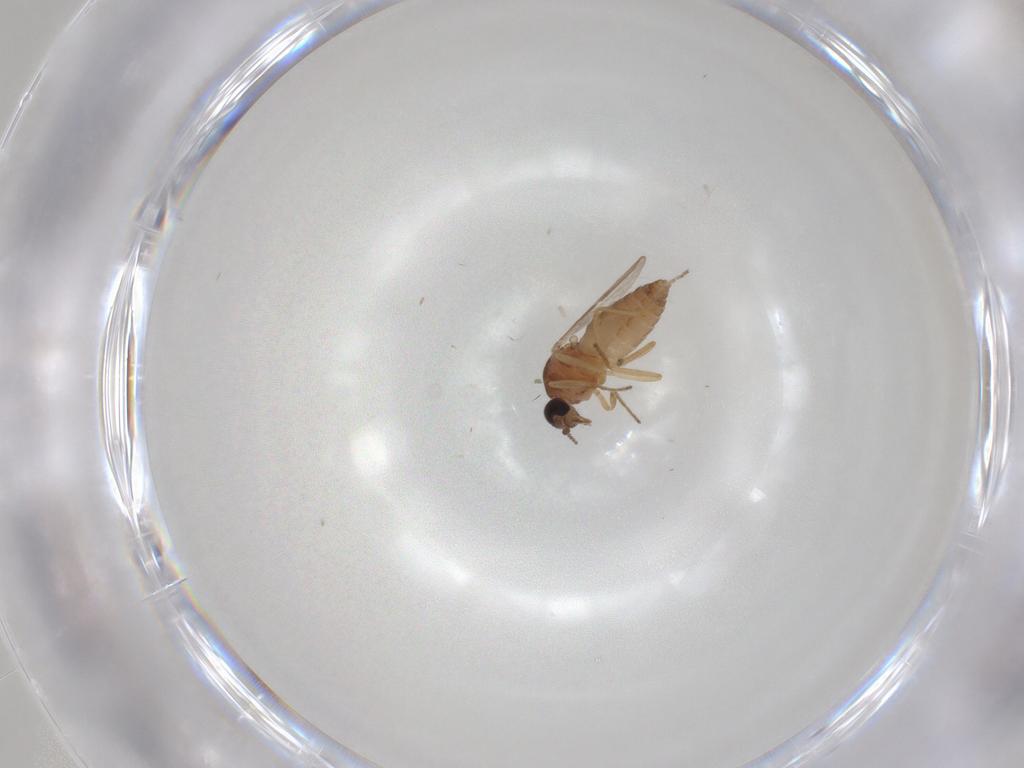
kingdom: Animalia
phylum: Arthropoda
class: Insecta
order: Diptera
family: Ceratopogonidae
